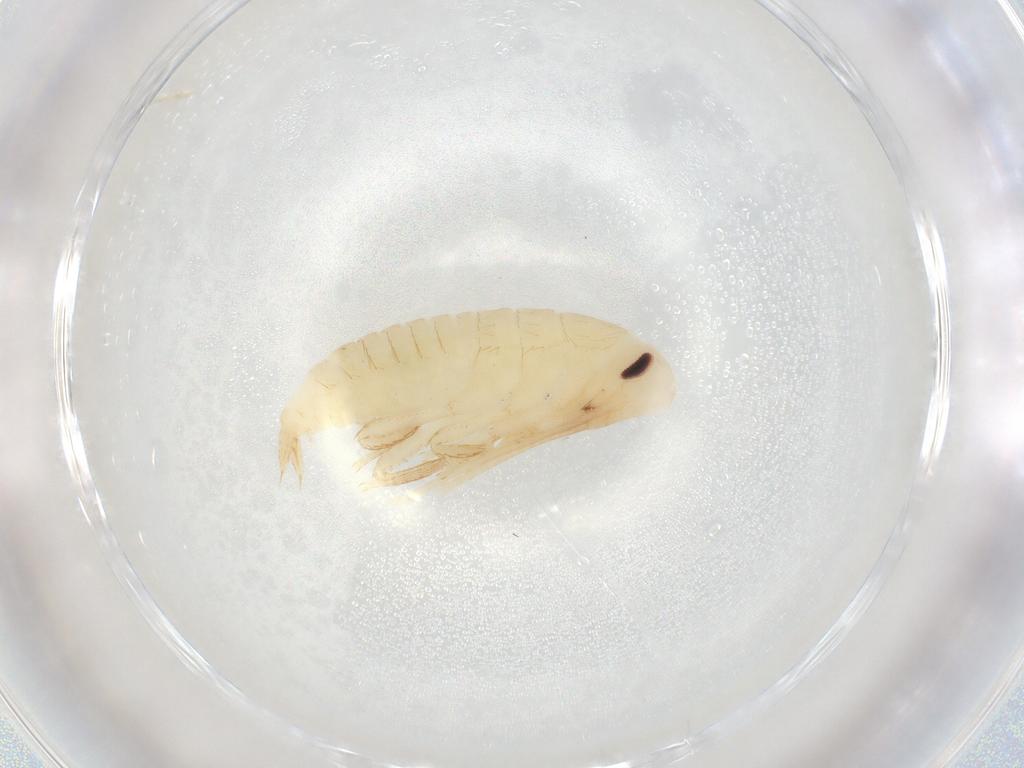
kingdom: Animalia
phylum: Arthropoda
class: Insecta
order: Blattodea
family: Ectobiidae
